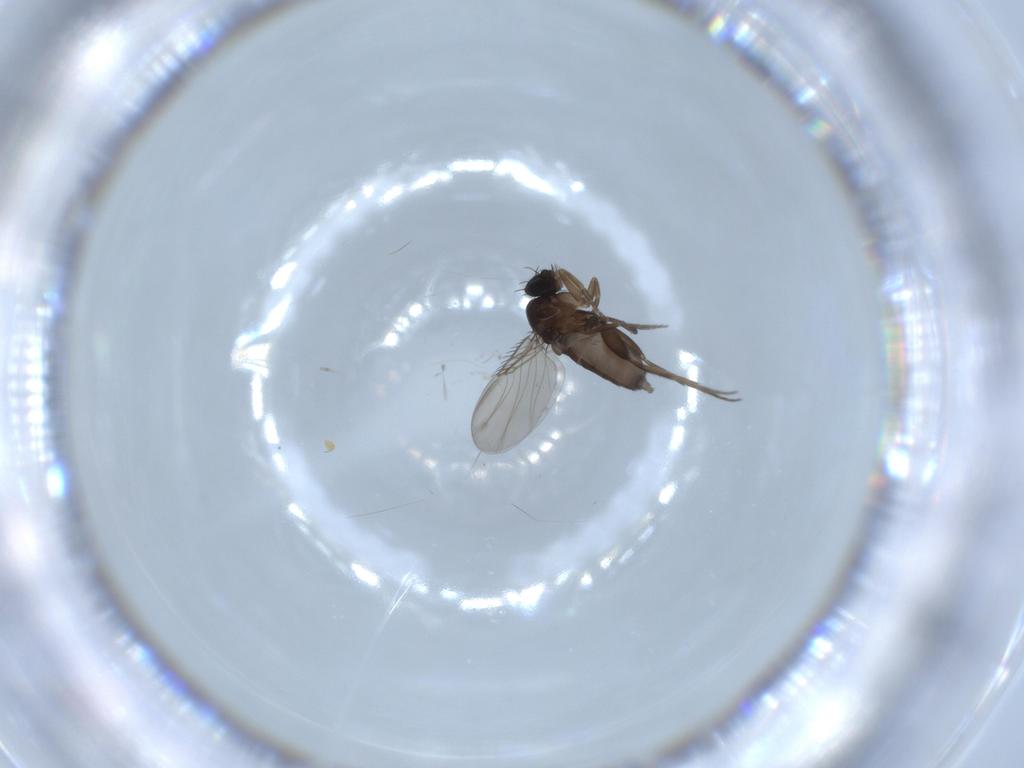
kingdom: Animalia
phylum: Arthropoda
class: Insecta
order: Diptera
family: Phoridae
